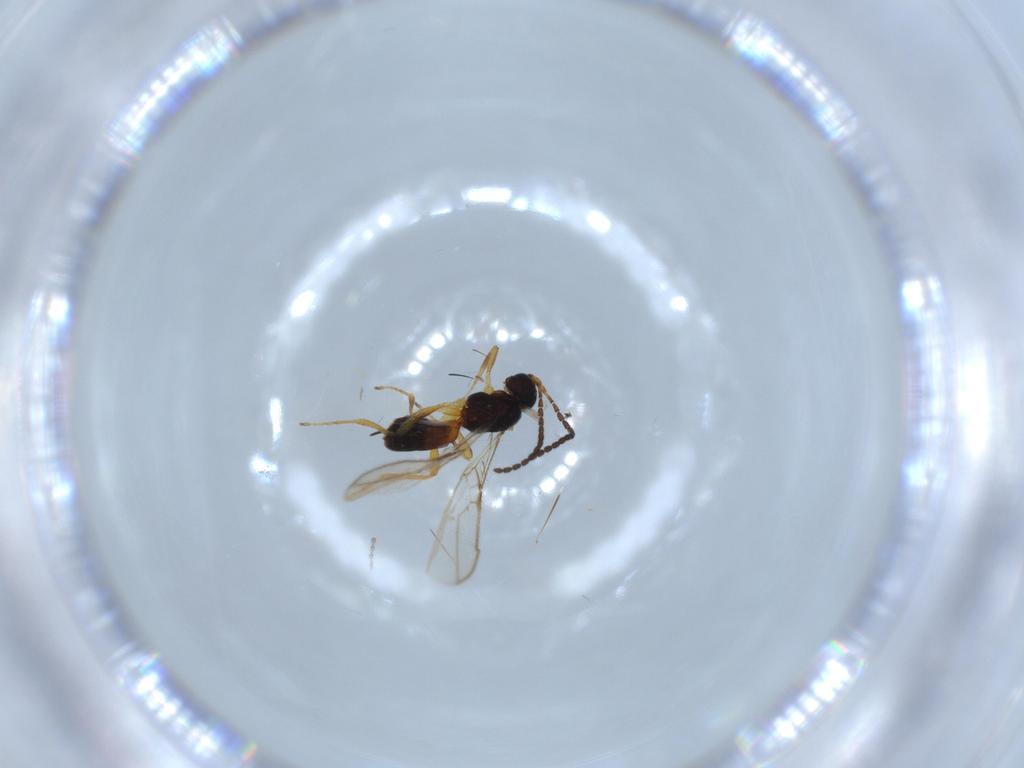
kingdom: Animalia
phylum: Arthropoda
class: Insecta
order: Hymenoptera
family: Braconidae
